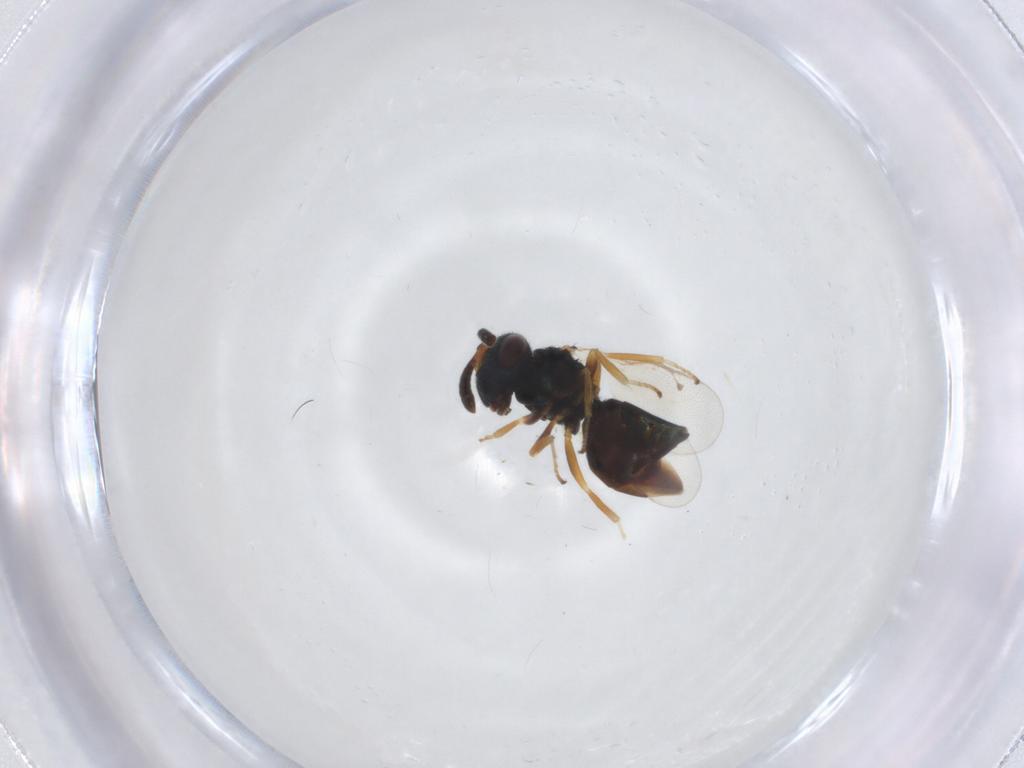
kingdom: Animalia
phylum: Arthropoda
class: Insecta
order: Hymenoptera
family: Pteromalidae
